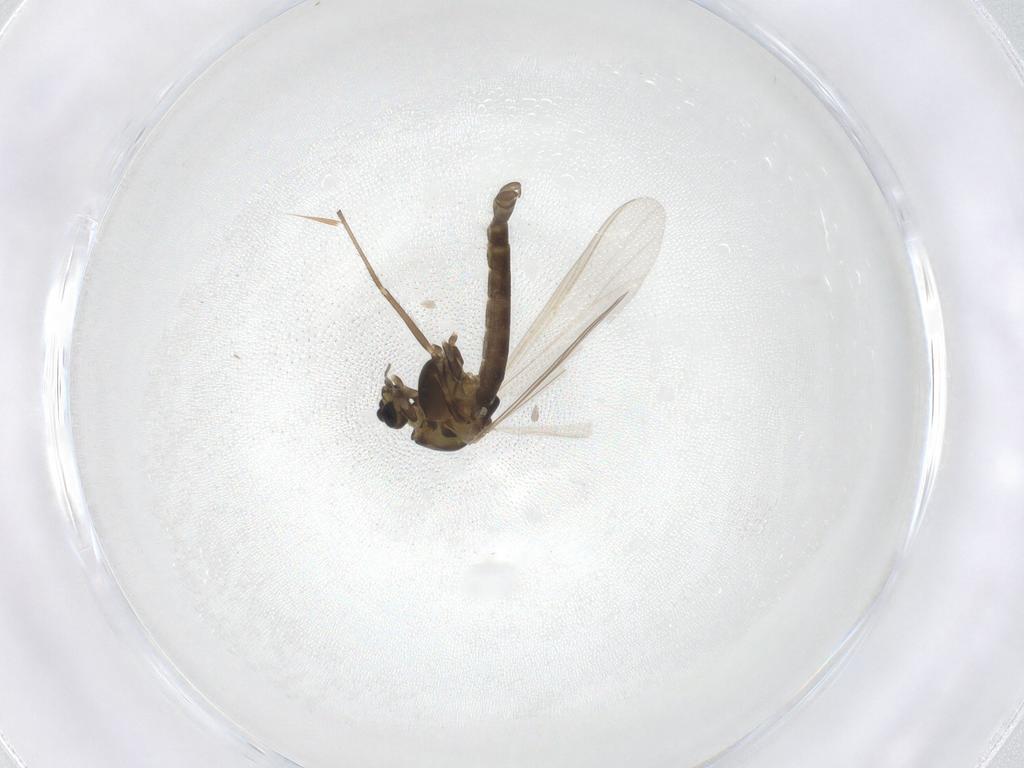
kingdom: Animalia
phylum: Arthropoda
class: Insecta
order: Diptera
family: Chironomidae
